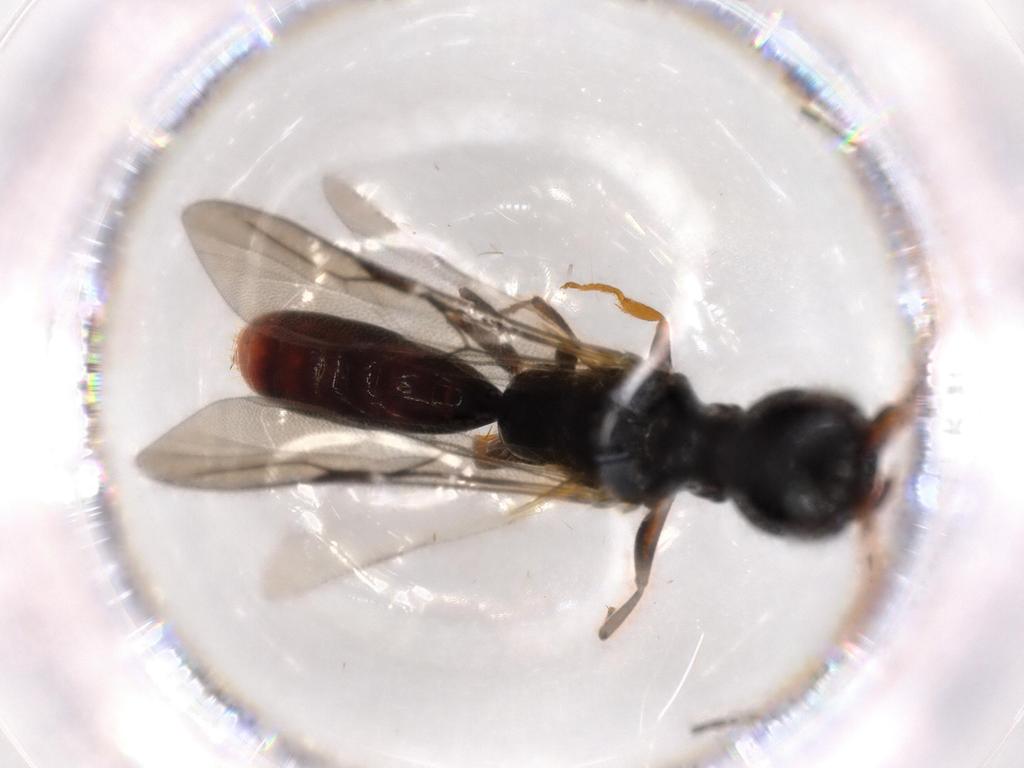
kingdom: Animalia
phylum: Arthropoda
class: Insecta
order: Hymenoptera
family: Bethylidae
